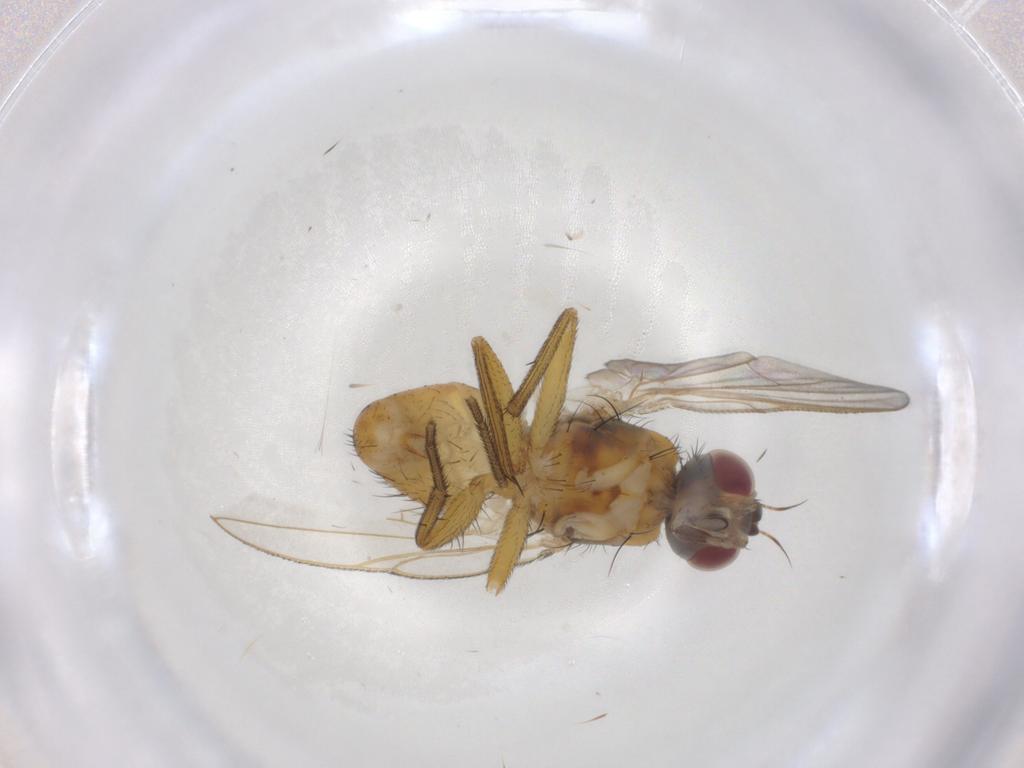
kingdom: Animalia
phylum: Arthropoda
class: Insecta
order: Diptera
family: Muscidae
